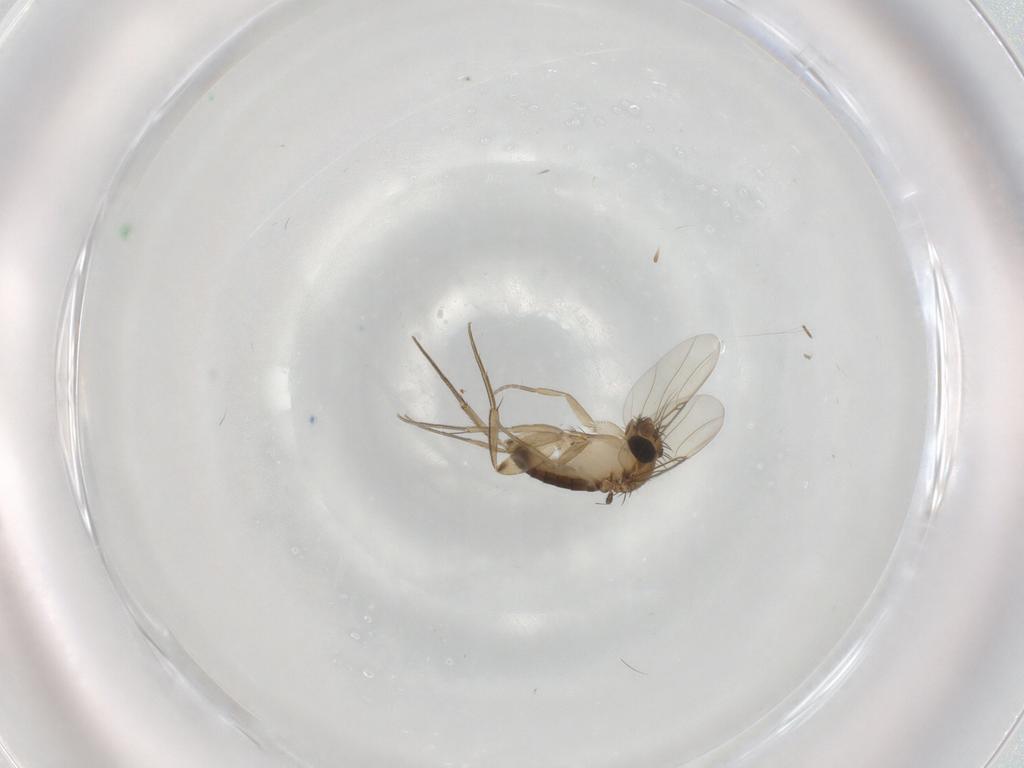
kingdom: Animalia
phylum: Arthropoda
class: Insecta
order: Diptera
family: Phoridae
